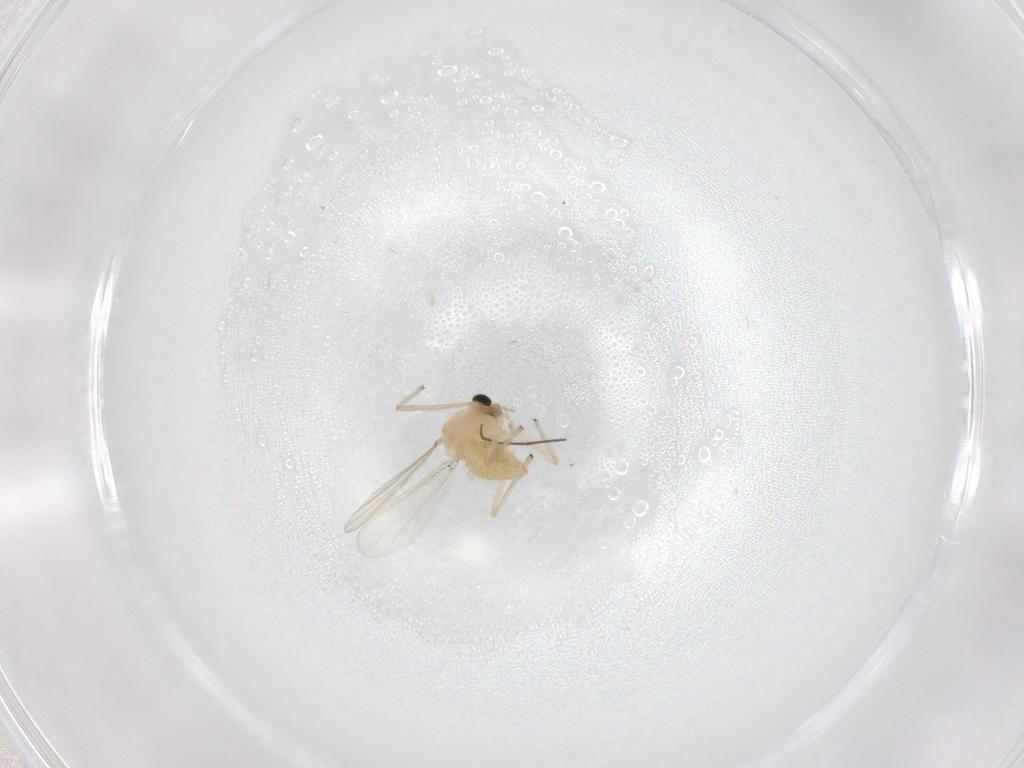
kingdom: Animalia
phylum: Arthropoda
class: Insecta
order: Diptera
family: Chironomidae
